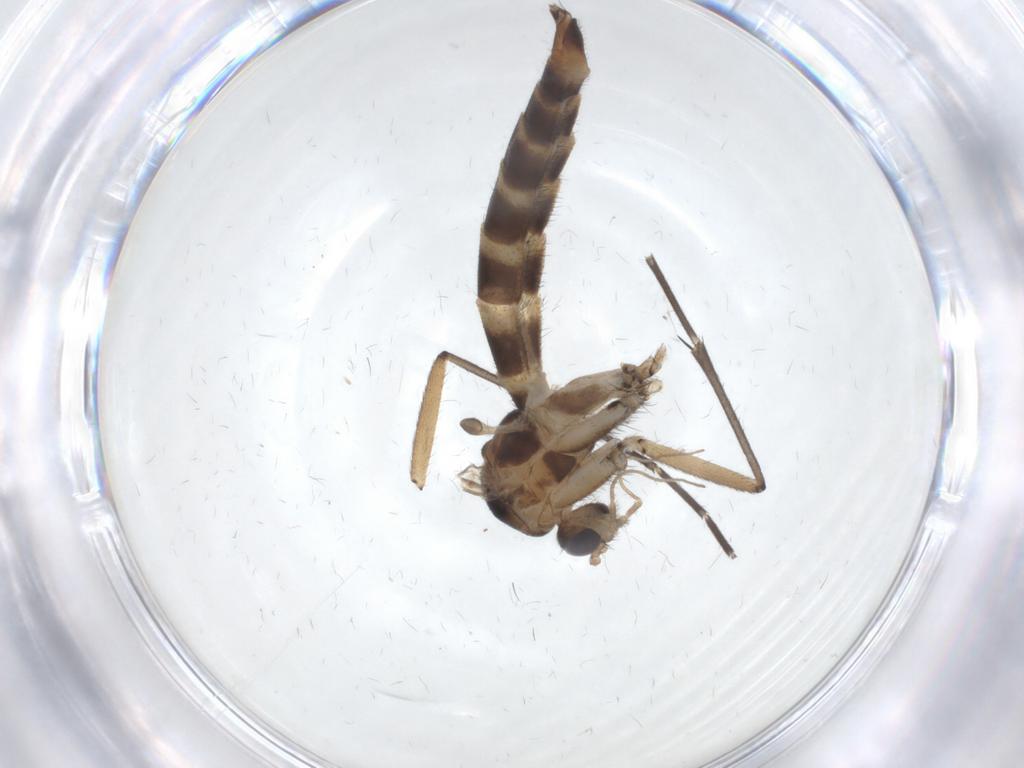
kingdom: Animalia
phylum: Arthropoda
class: Insecta
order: Diptera
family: Mycetophilidae
